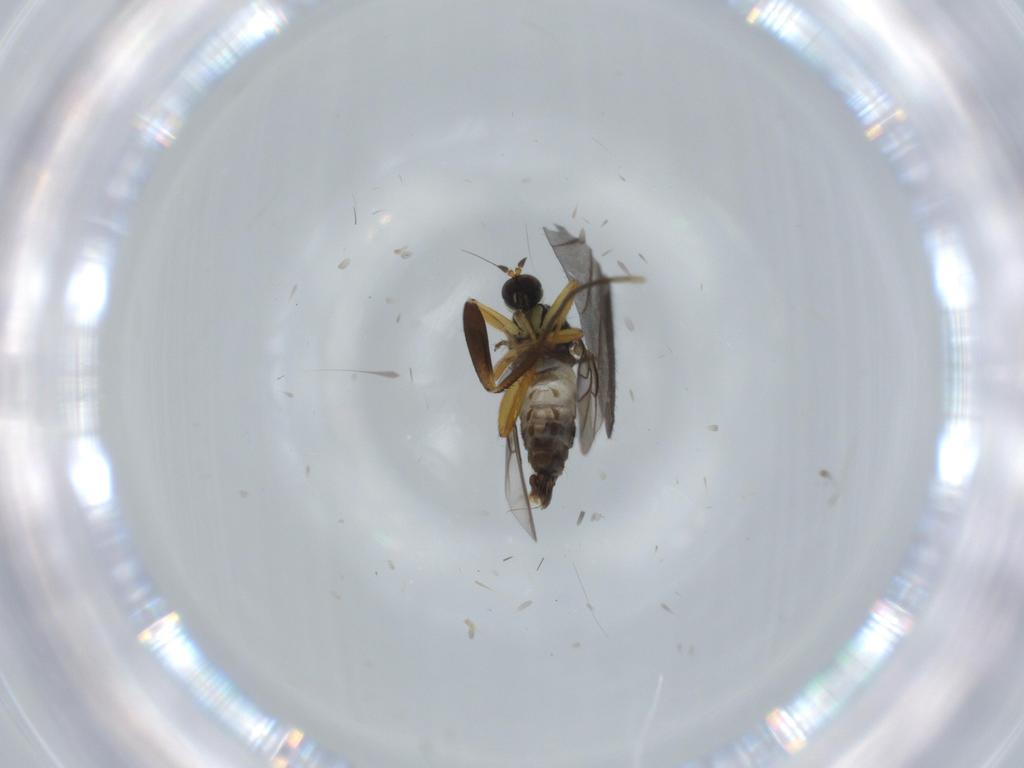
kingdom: Animalia
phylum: Arthropoda
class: Insecta
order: Diptera
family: Hybotidae
